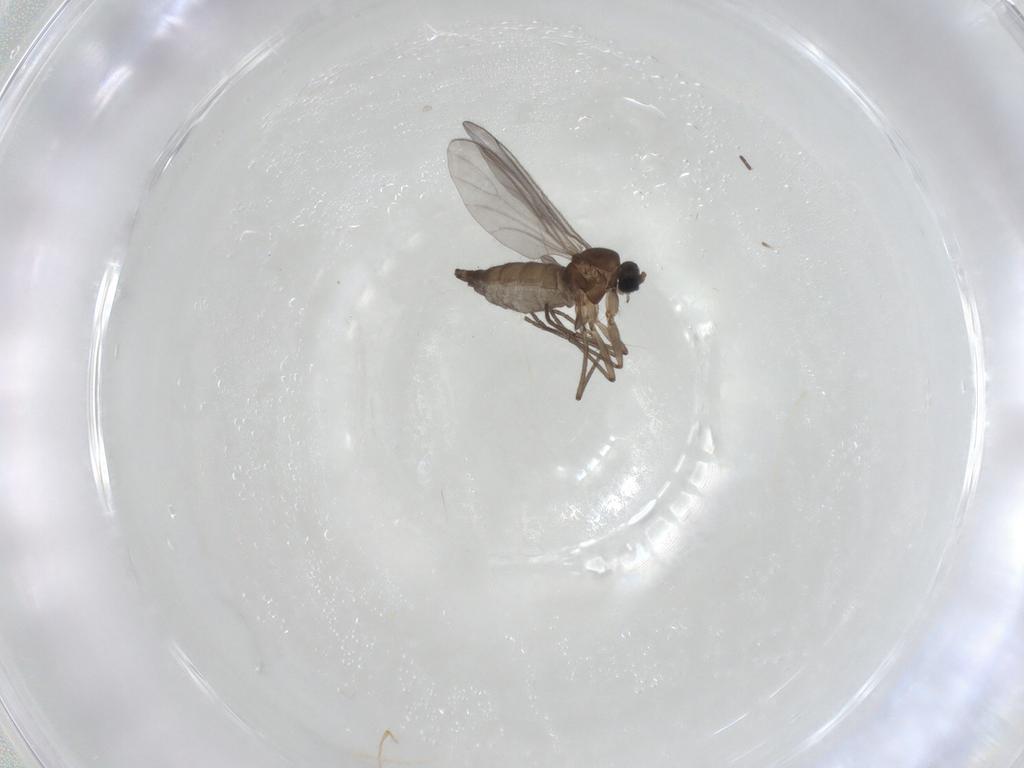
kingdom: Animalia
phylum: Arthropoda
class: Insecta
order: Diptera
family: Sciaridae
